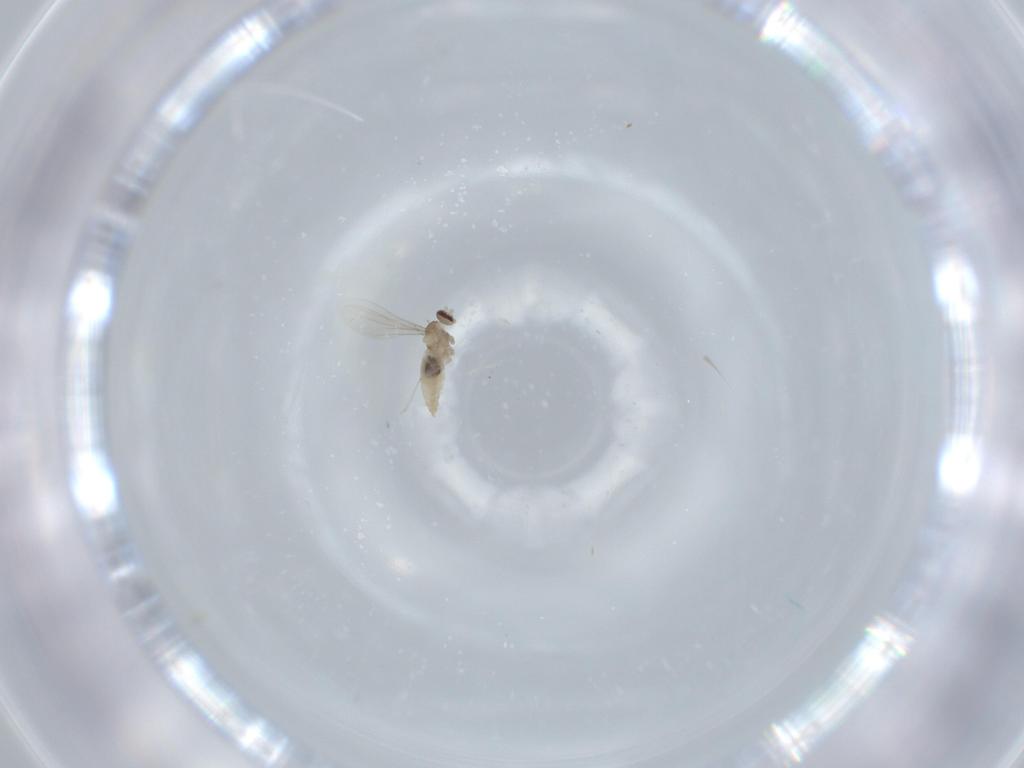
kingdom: Animalia
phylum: Arthropoda
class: Insecta
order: Diptera
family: Cecidomyiidae
